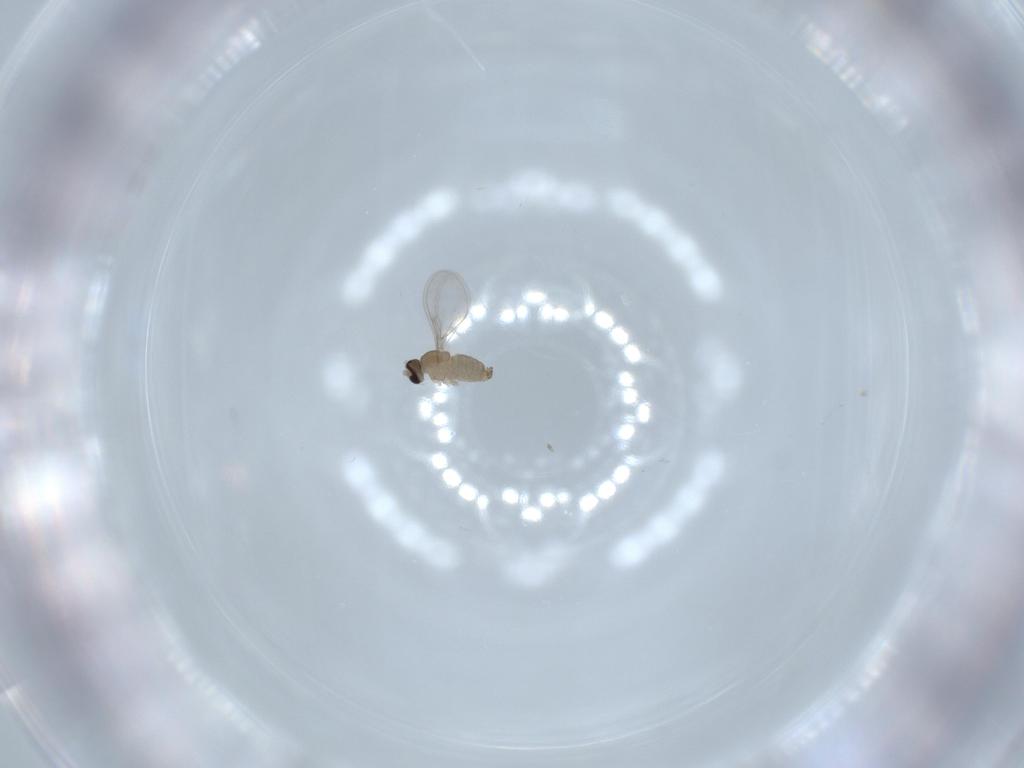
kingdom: Animalia
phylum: Arthropoda
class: Insecta
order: Diptera
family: Cecidomyiidae
